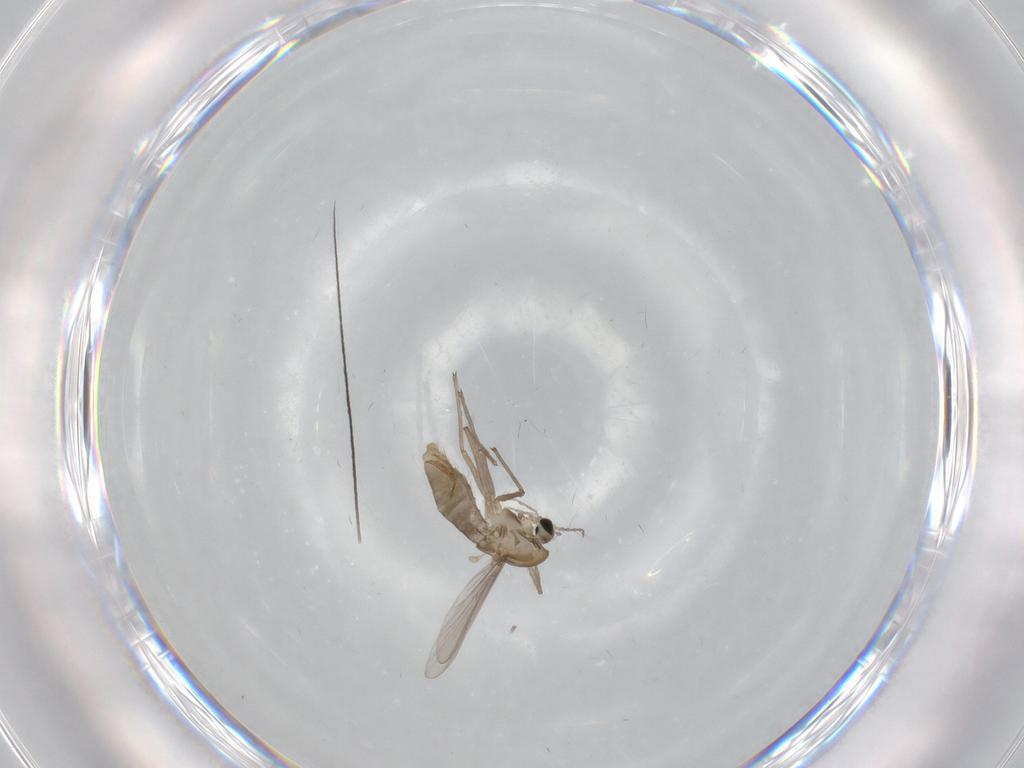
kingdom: Animalia
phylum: Arthropoda
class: Insecta
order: Diptera
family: Chironomidae
